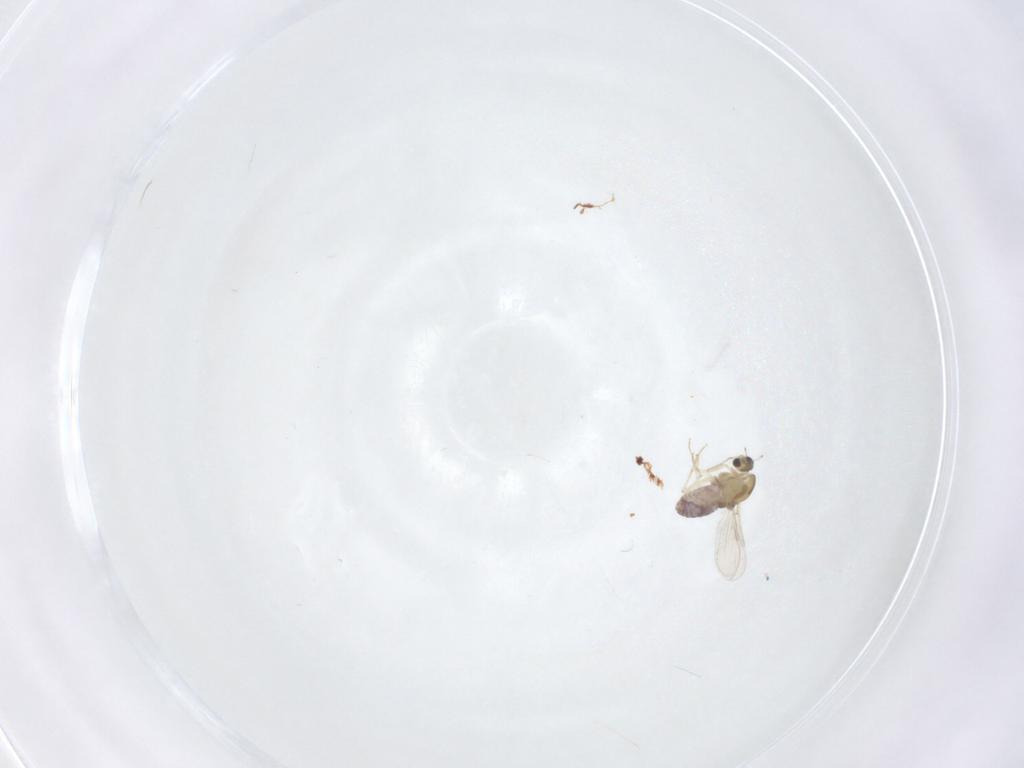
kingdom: Animalia
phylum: Arthropoda
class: Insecta
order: Diptera
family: Chironomidae
